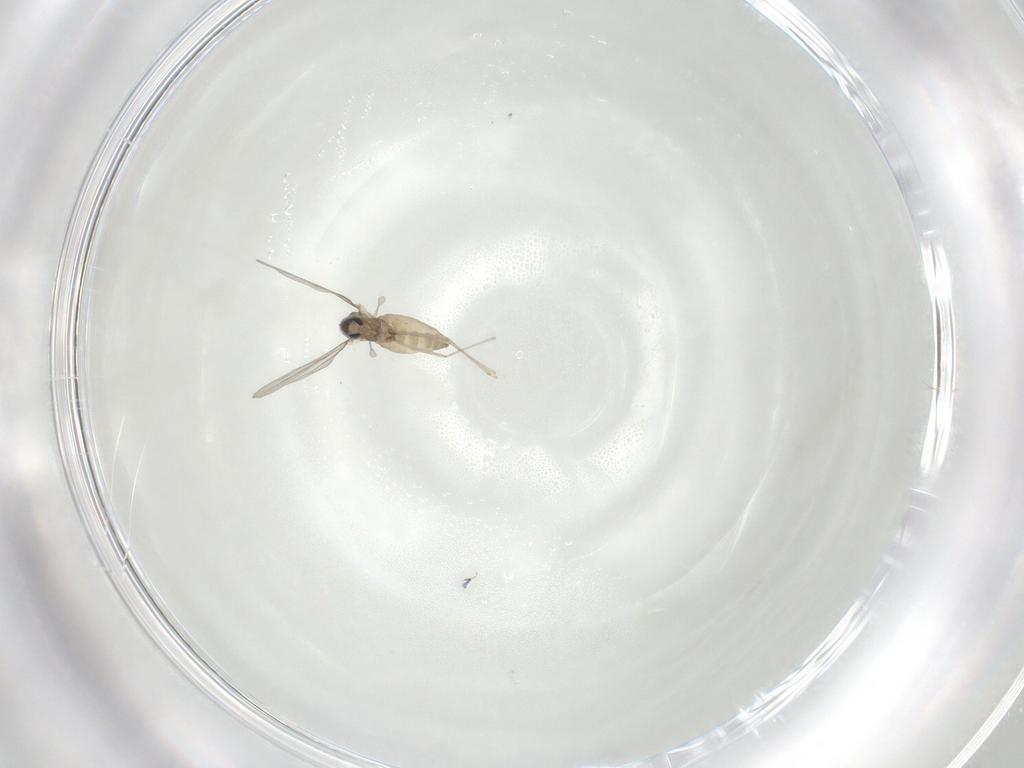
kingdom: Animalia
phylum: Arthropoda
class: Insecta
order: Diptera
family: Cecidomyiidae
